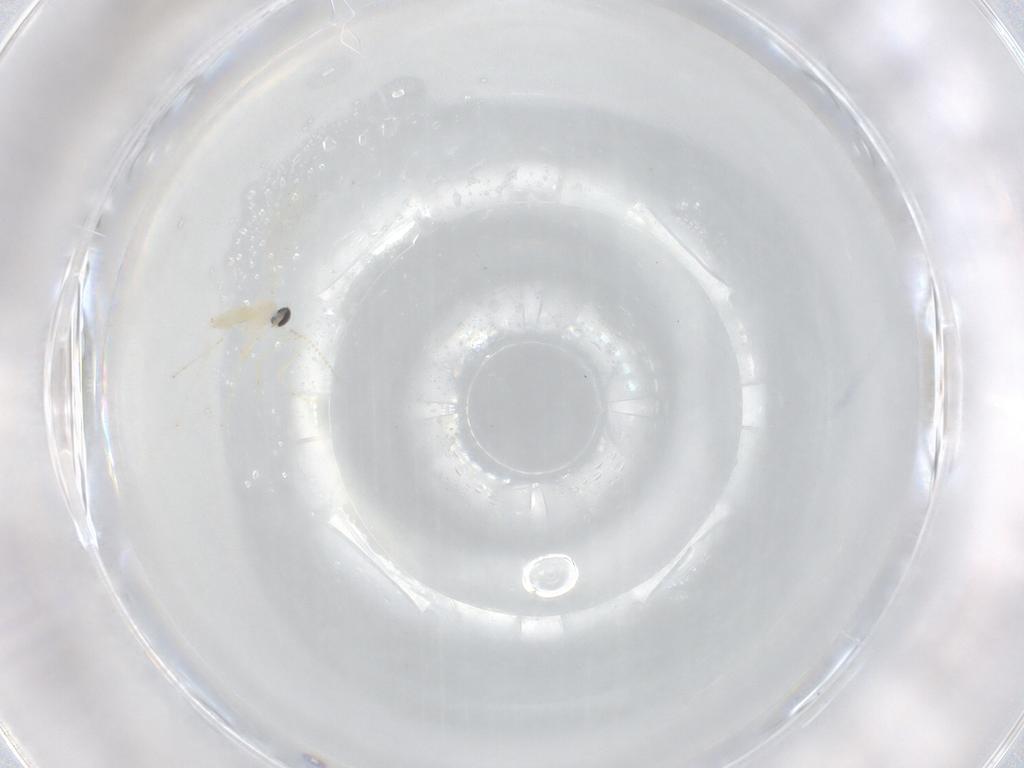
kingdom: Animalia
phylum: Arthropoda
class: Insecta
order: Diptera
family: Cecidomyiidae
